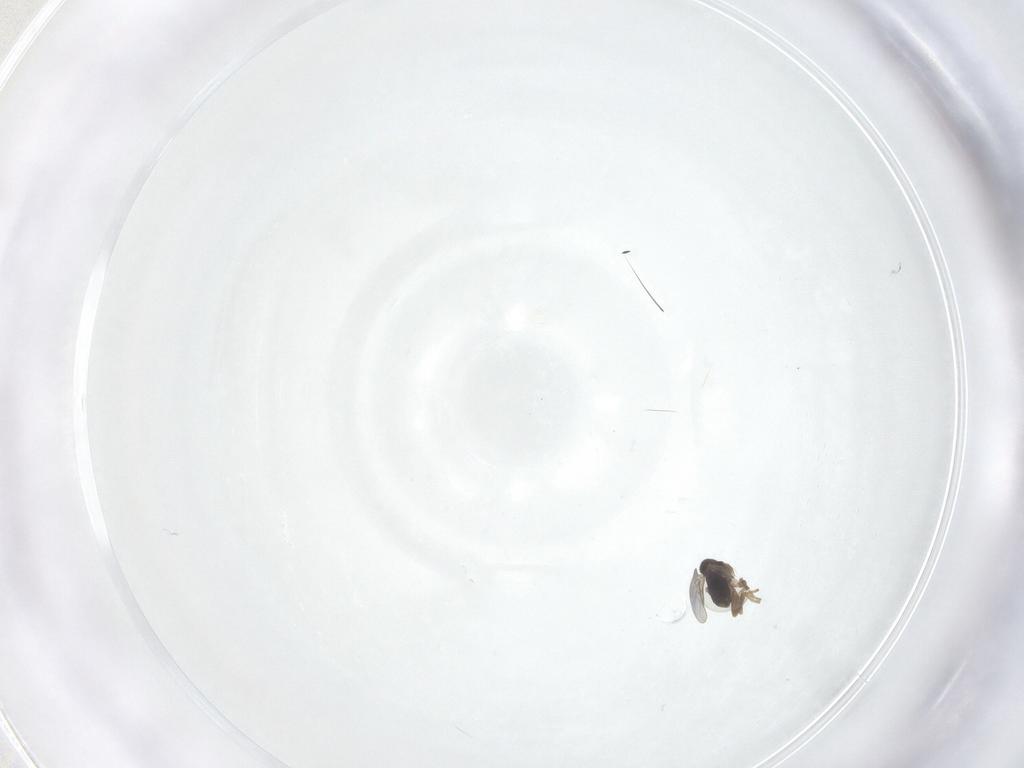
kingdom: Animalia
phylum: Arthropoda
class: Insecta
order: Diptera
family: Phoridae
